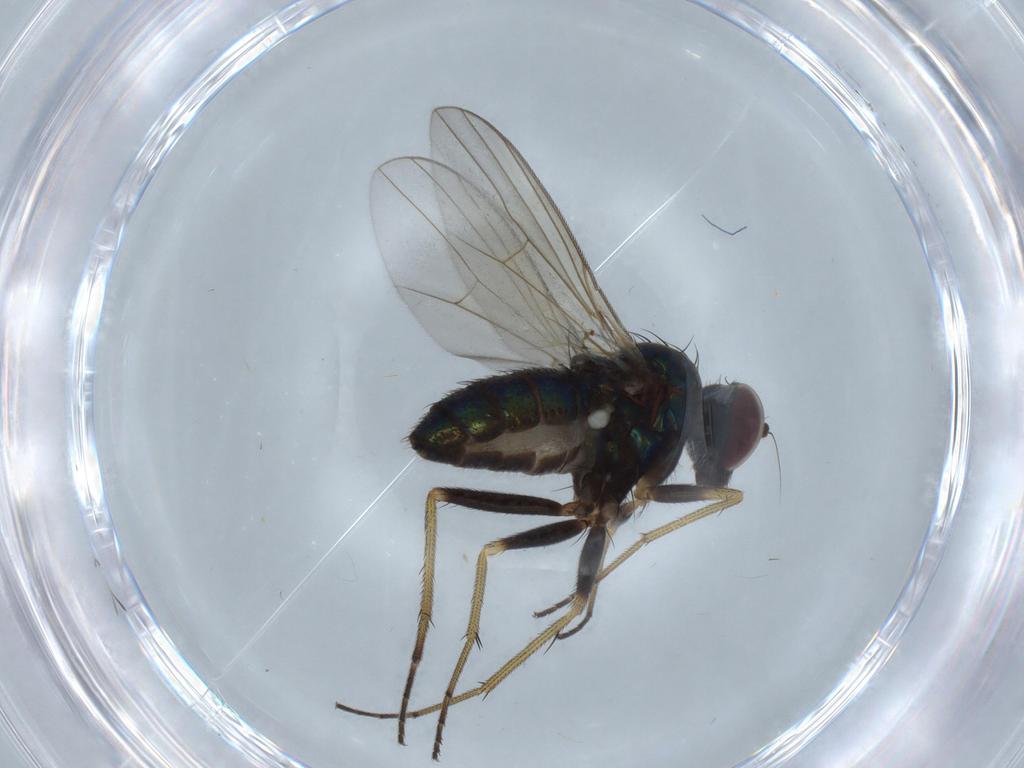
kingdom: Animalia
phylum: Arthropoda
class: Insecta
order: Diptera
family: Dolichopodidae
